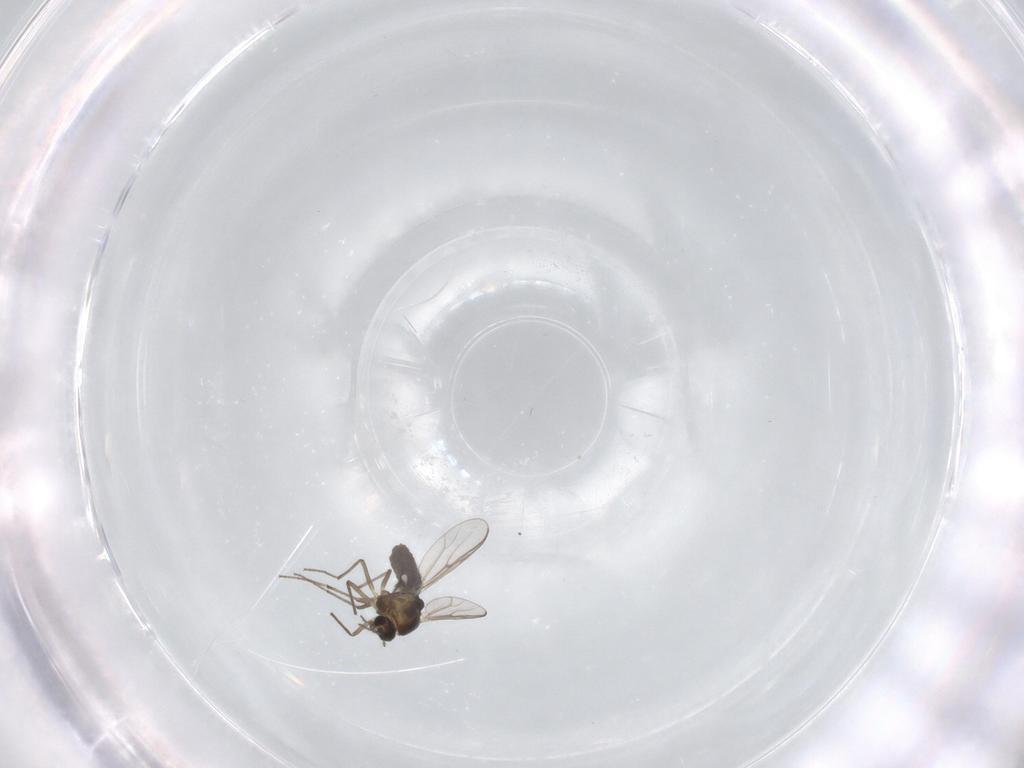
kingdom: Animalia
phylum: Arthropoda
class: Insecta
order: Diptera
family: Chironomidae
